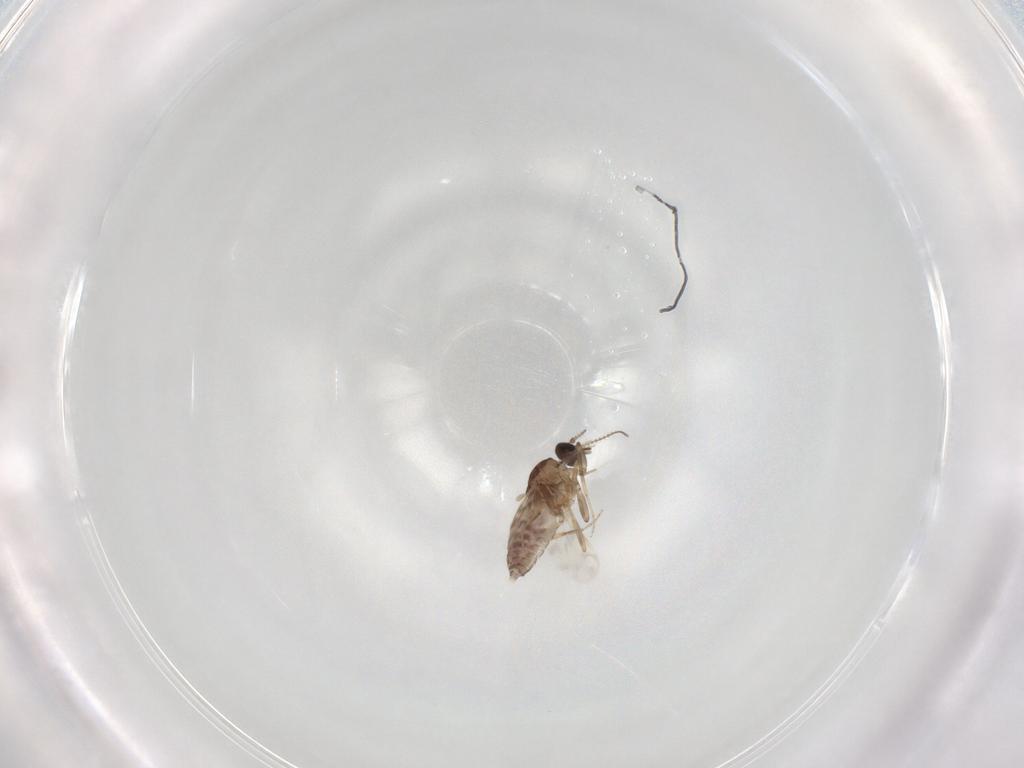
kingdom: Animalia
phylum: Arthropoda
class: Insecta
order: Diptera
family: Ceratopogonidae
